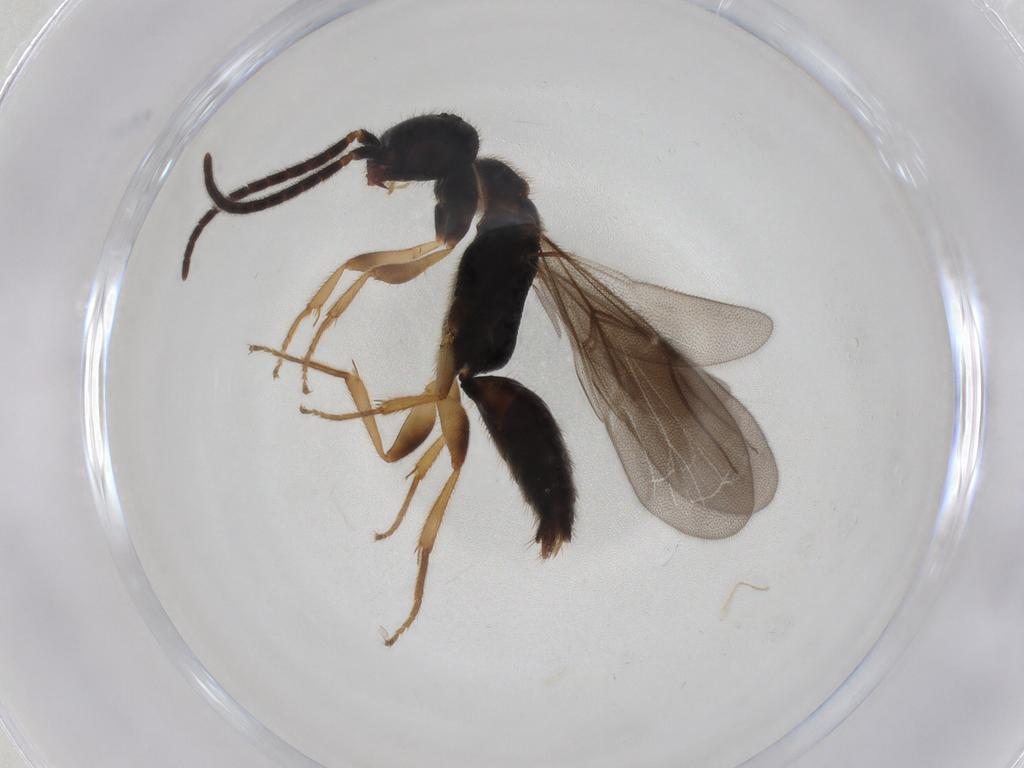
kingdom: Animalia
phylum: Arthropoda
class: Insecta
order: Hymenoptera
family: Bethylidae
